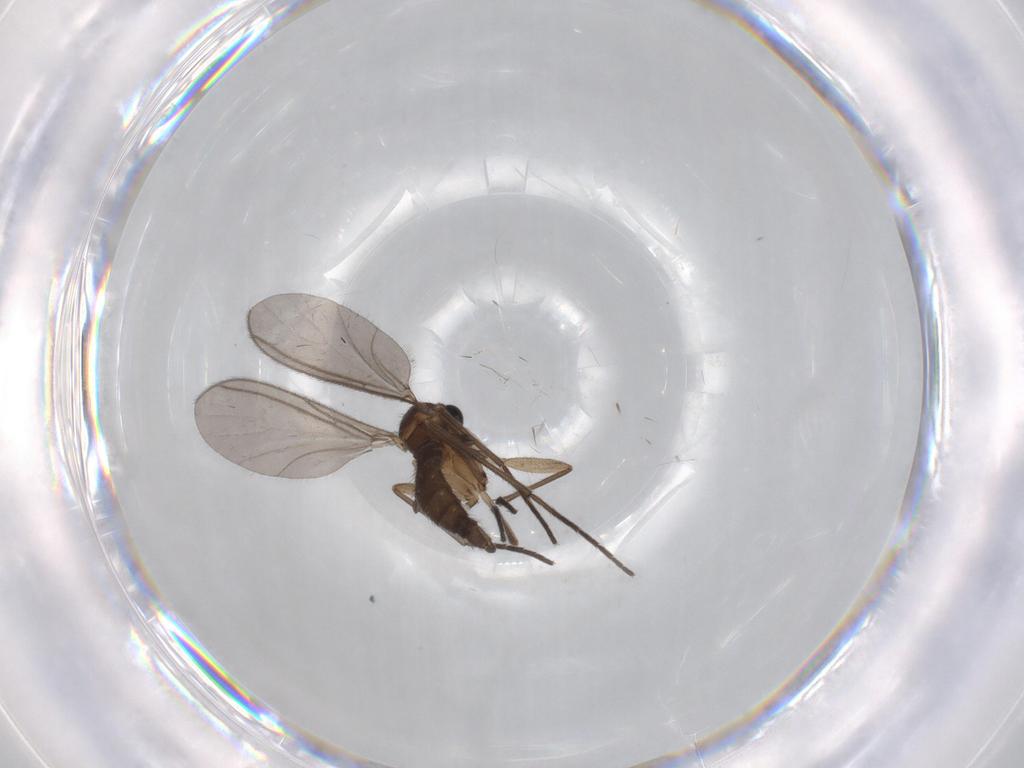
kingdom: Animalia
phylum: Arthropoda
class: Insecta
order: Diptera
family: Sciaridae
